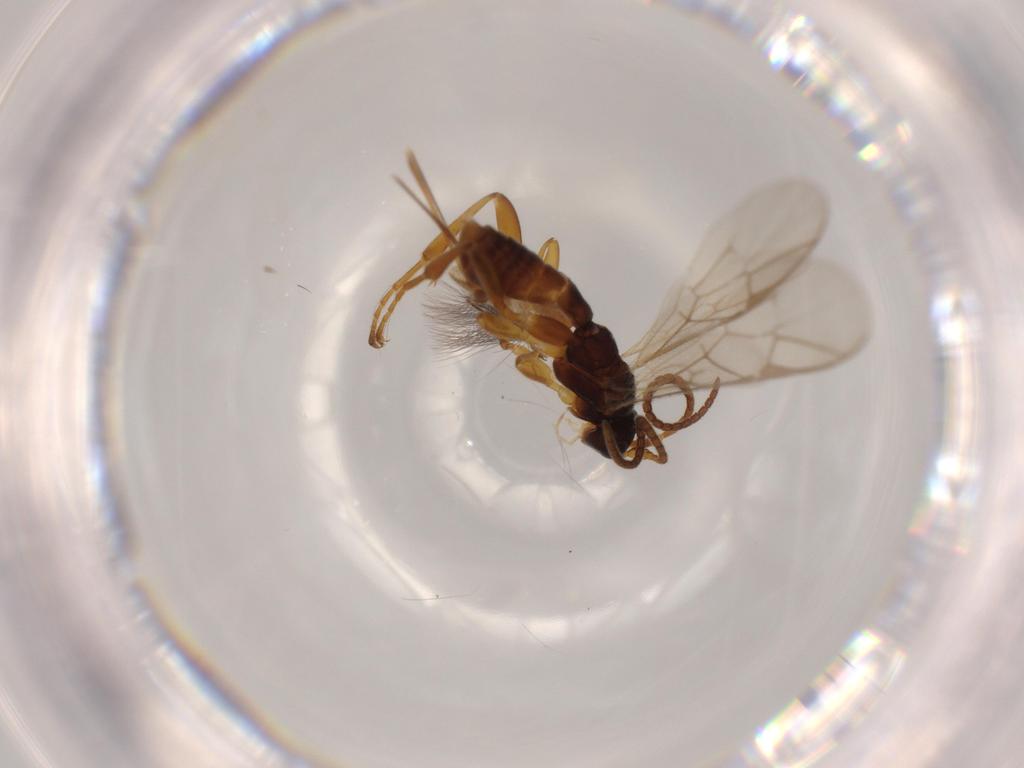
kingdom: Animalia
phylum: Arthropoda
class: Insecta
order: Hymenoptera
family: Ichneumonidae
